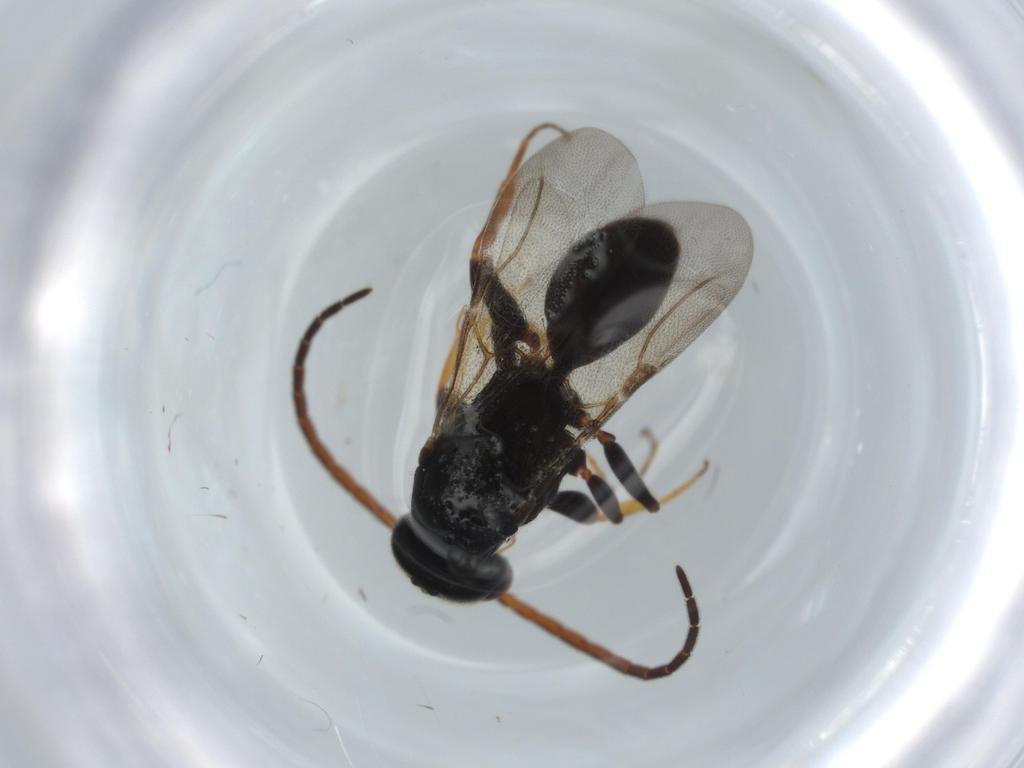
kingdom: Animalia
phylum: Arthropoda
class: Insecta
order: Hymenoptera
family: Bethylidae
